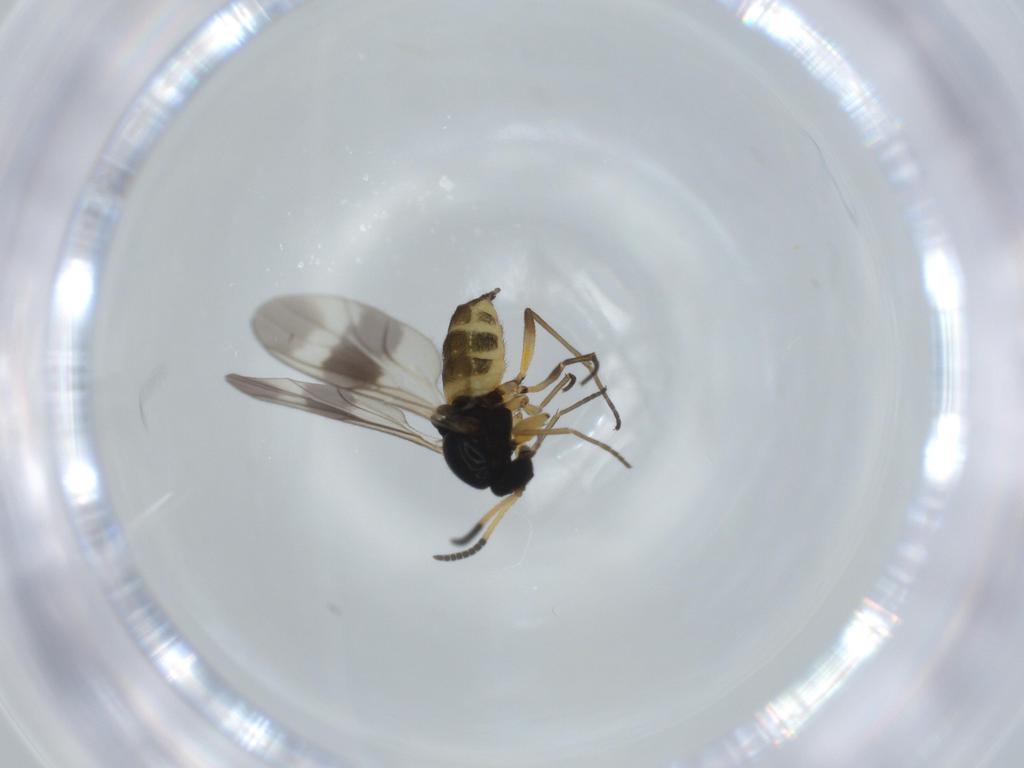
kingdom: Animalia
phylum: Arthropoda
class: Insecta
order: Diptera
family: Sciaridae
